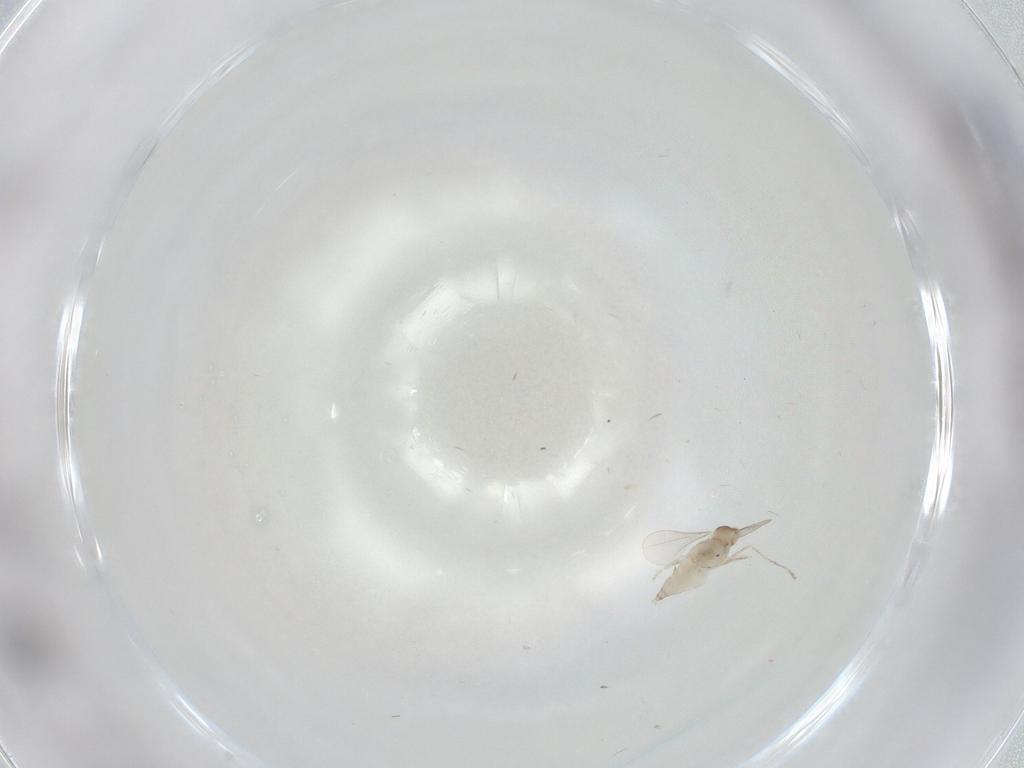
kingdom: Animalia
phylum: Arthropoda
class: Insecta
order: Diptera
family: Cecidomyiidae
